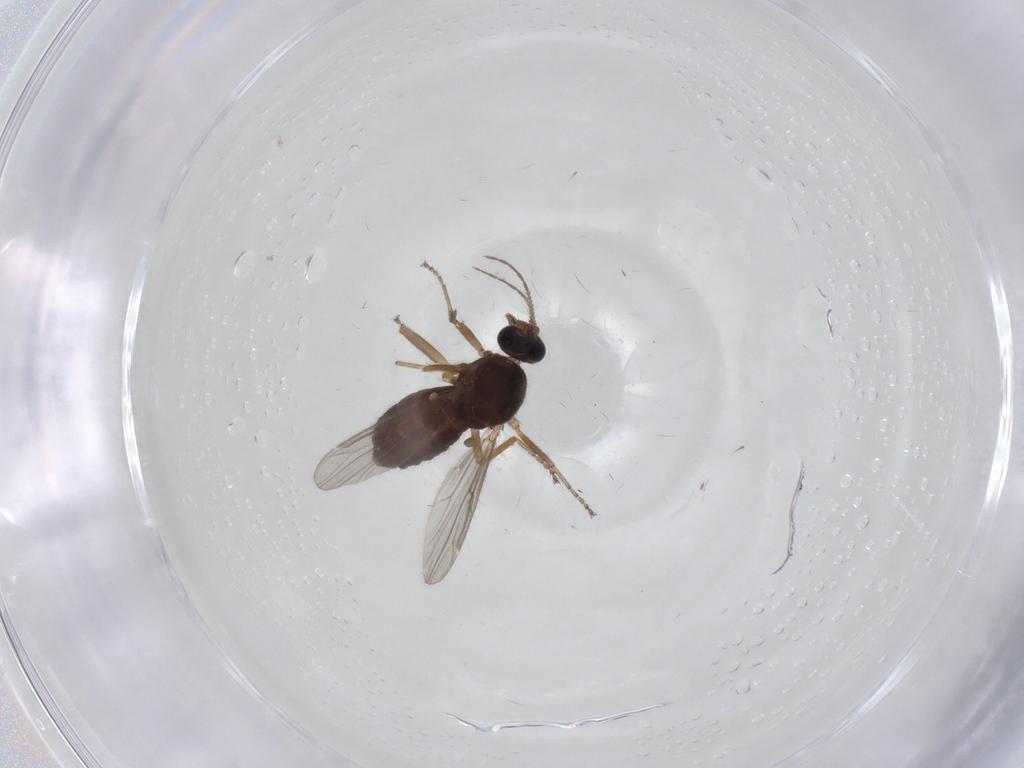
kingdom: Animalia
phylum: Arthropoda
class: Insecta
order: Diptera
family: Ceratopogonidae
